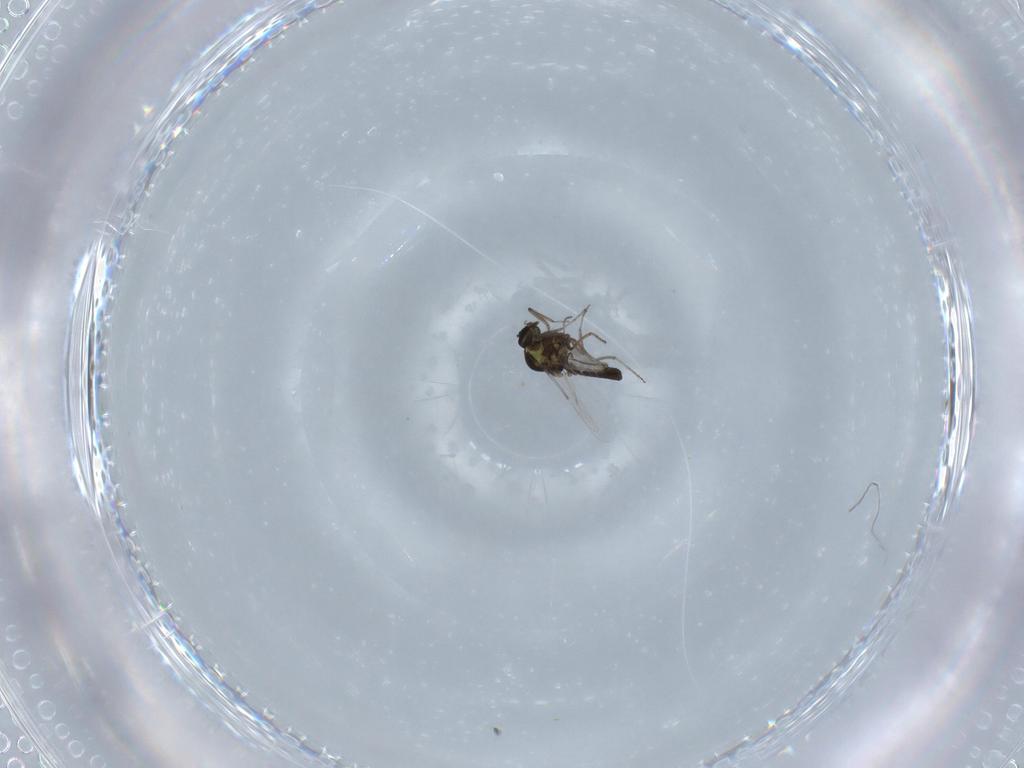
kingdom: Animalia
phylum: Arthropoda
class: Insecta
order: Diptera
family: Ceratopogonidae
